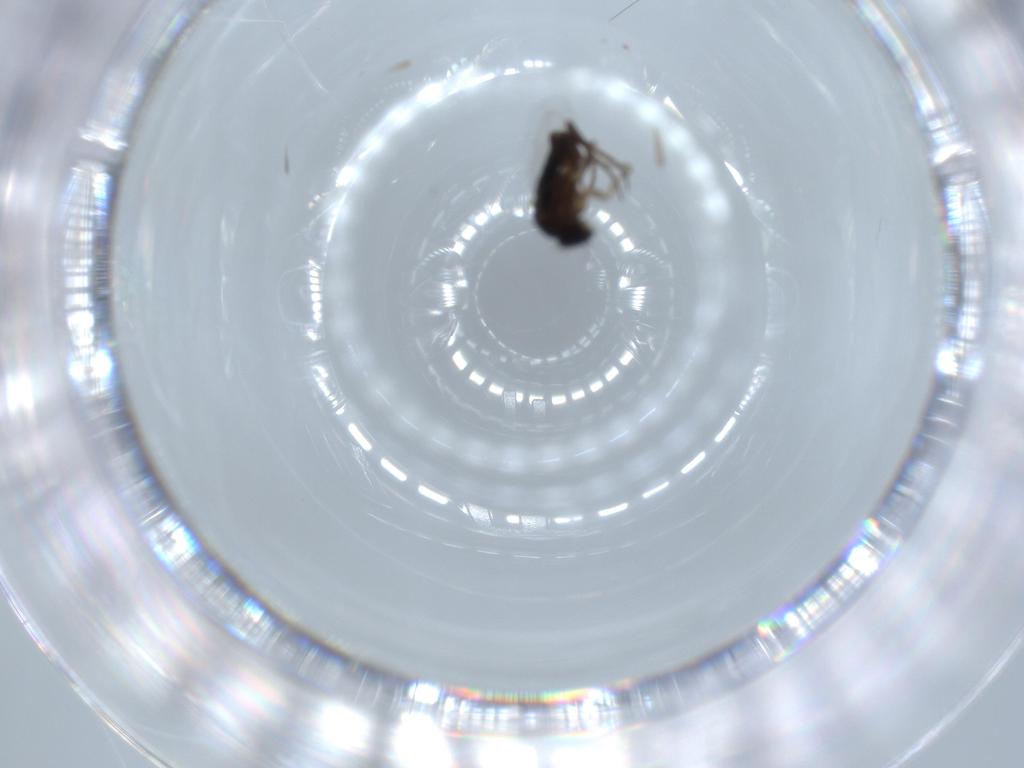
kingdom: Animalia
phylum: Arthropoda
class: Insecta
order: Diptera
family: Phoridae
